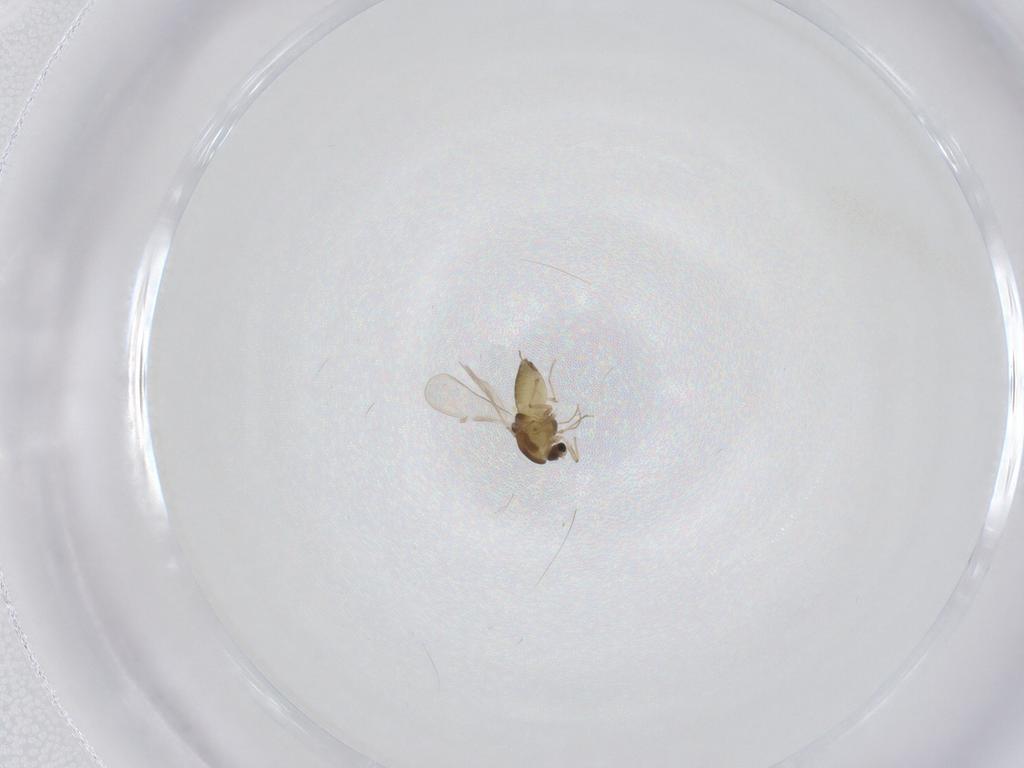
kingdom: Animalia
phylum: Arthropoda
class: Insecta
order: Diptera
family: Chironomidae
